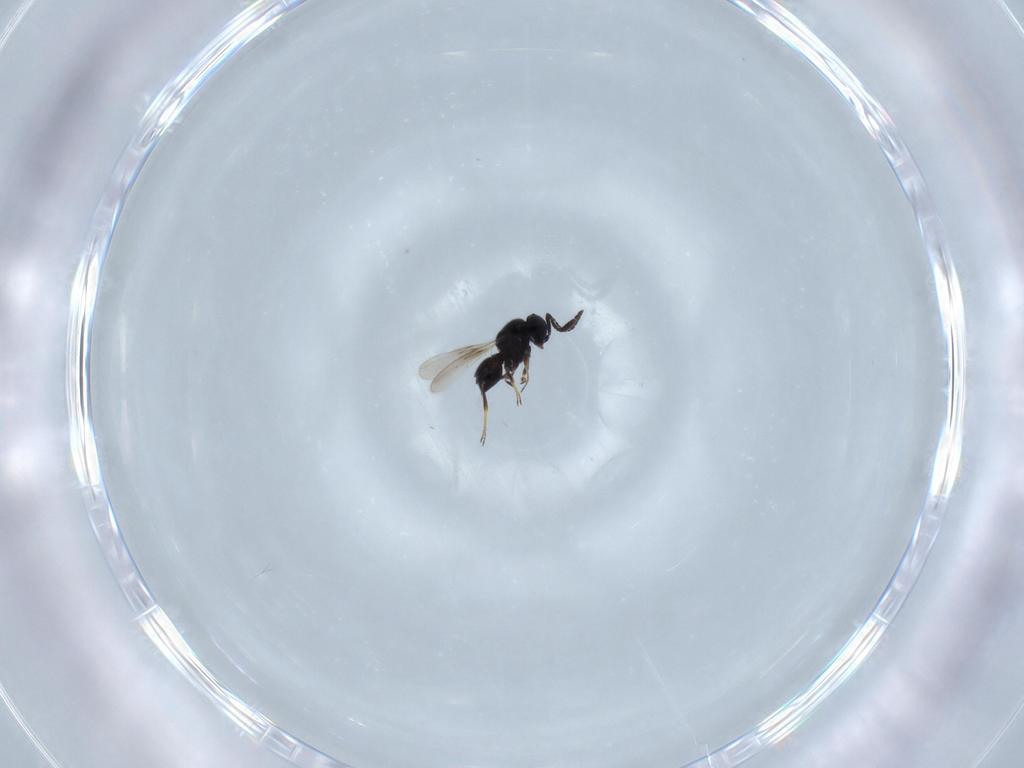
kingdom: Animalia
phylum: Arthropoda
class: Insecta
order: Hymenoptera
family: Scelionidae
